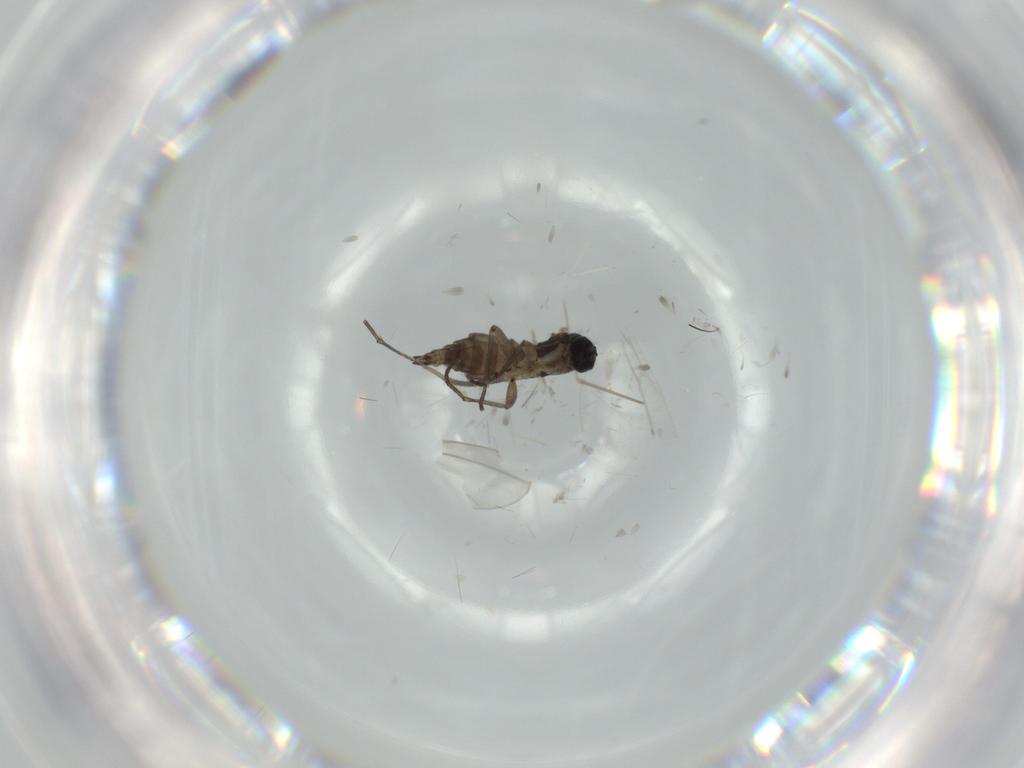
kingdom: Animalia
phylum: Arthropoda
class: Insecta
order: Diptera
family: Sciaridae
